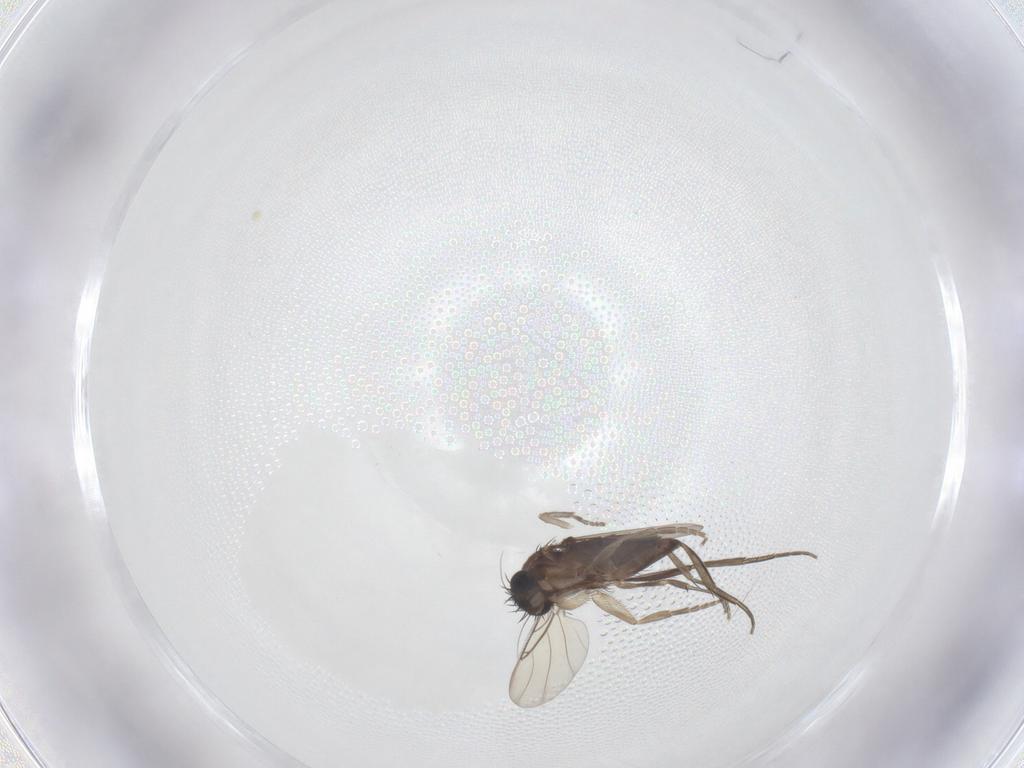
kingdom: Animalia
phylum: Arthropoda
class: Insecta
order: Diptera
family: Phoridae
